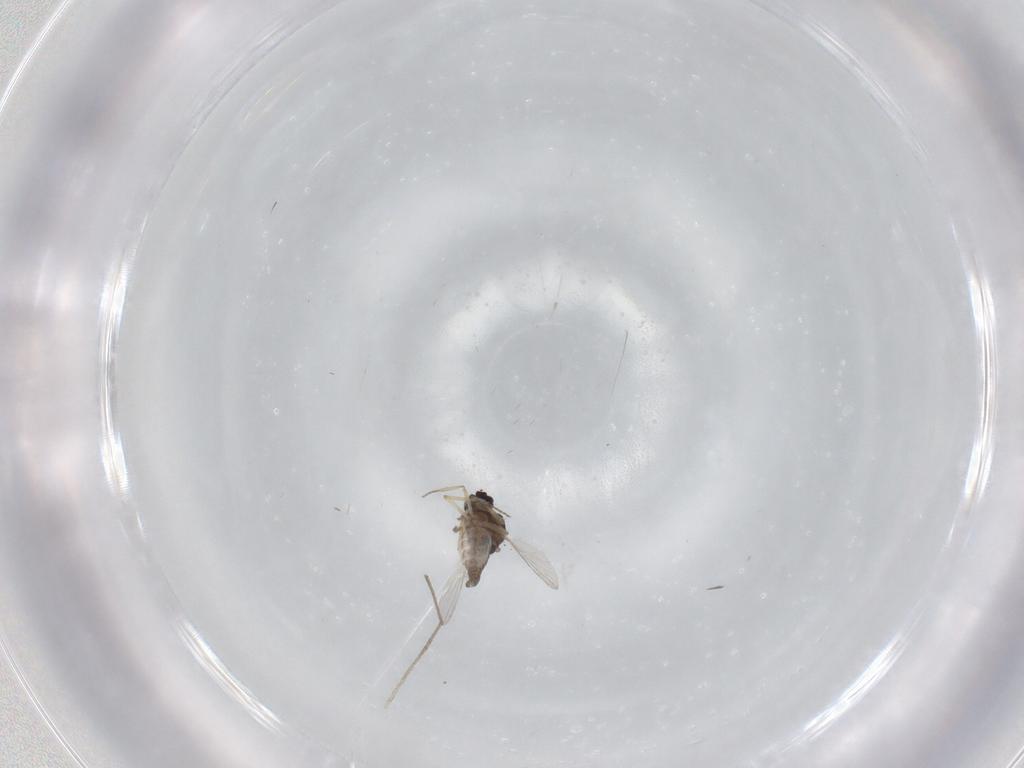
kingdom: Animalia
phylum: Arthropoda
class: Insecta
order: Diptera
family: Ceratopogonidae
